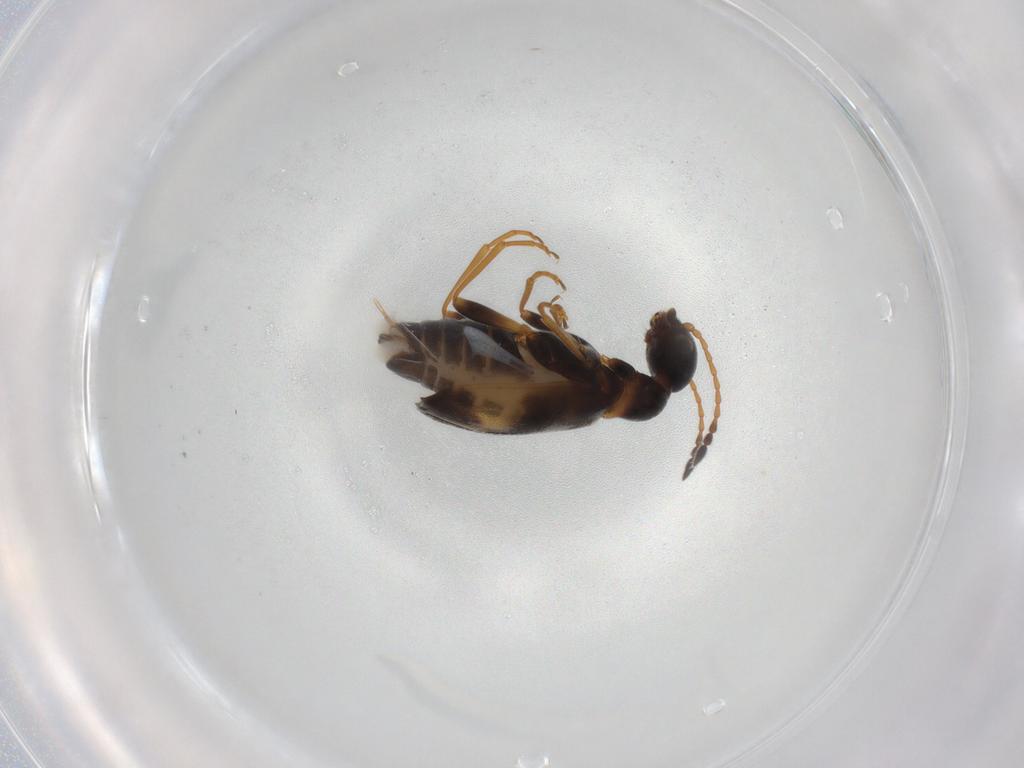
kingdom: Animalia
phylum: Arthropoda
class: Insecta
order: Coleoptera
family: Anthicidae
